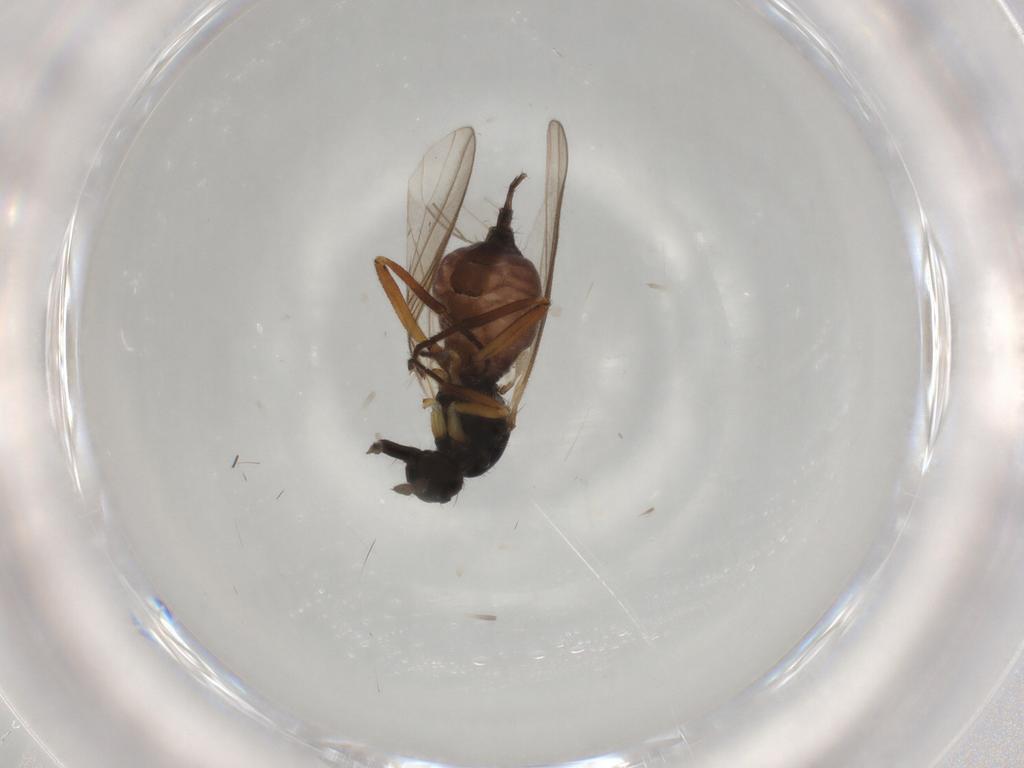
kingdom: Animalia
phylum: Arthropoda
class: Insecta
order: Diptera
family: Hybotidae
